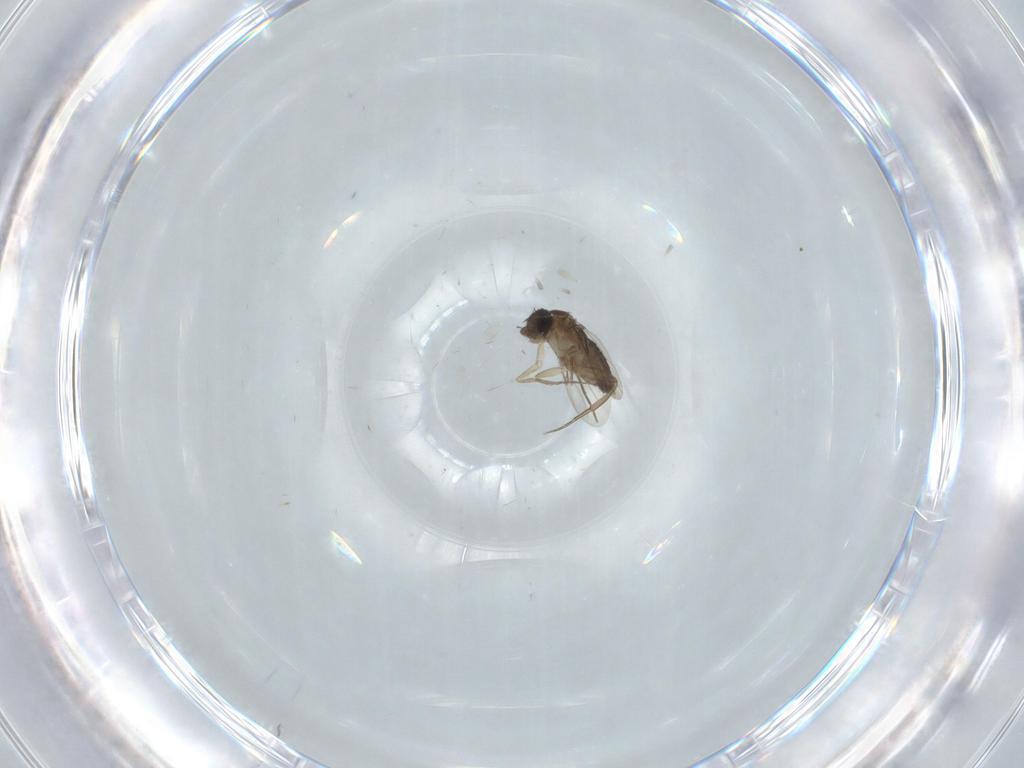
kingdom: Animalia
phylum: Arthropoda
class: Insecta
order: Diptera
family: Phoridae
